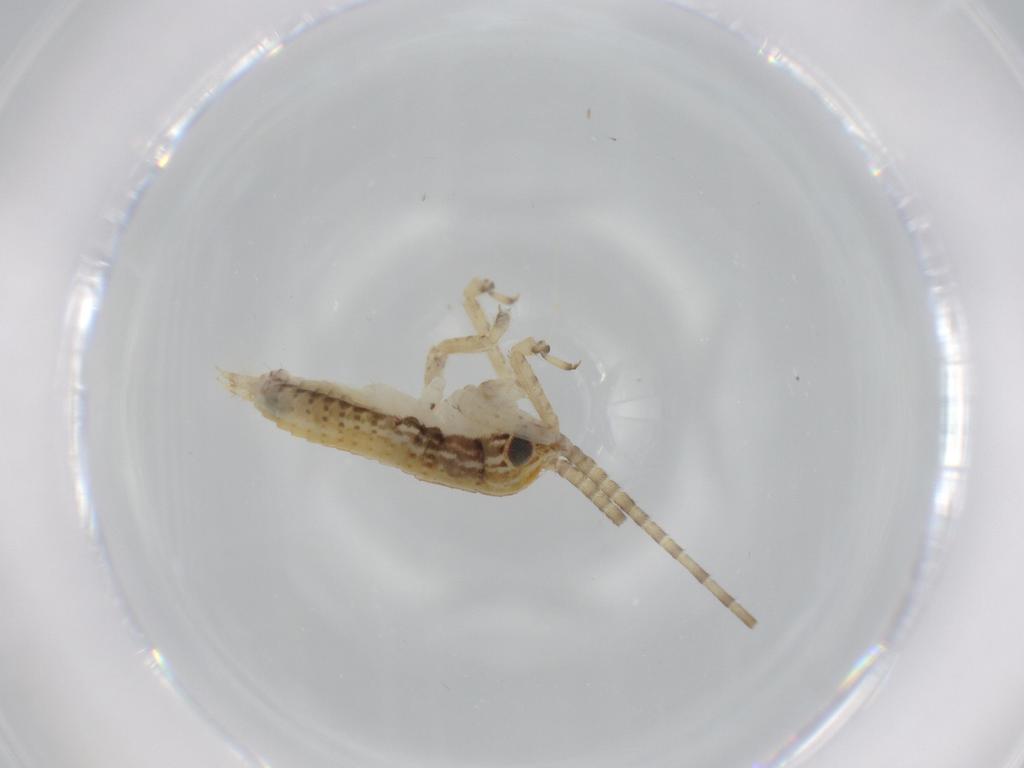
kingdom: Animalia
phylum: Arthropoda
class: Insecta
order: Orthoptera
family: Gryllidae
